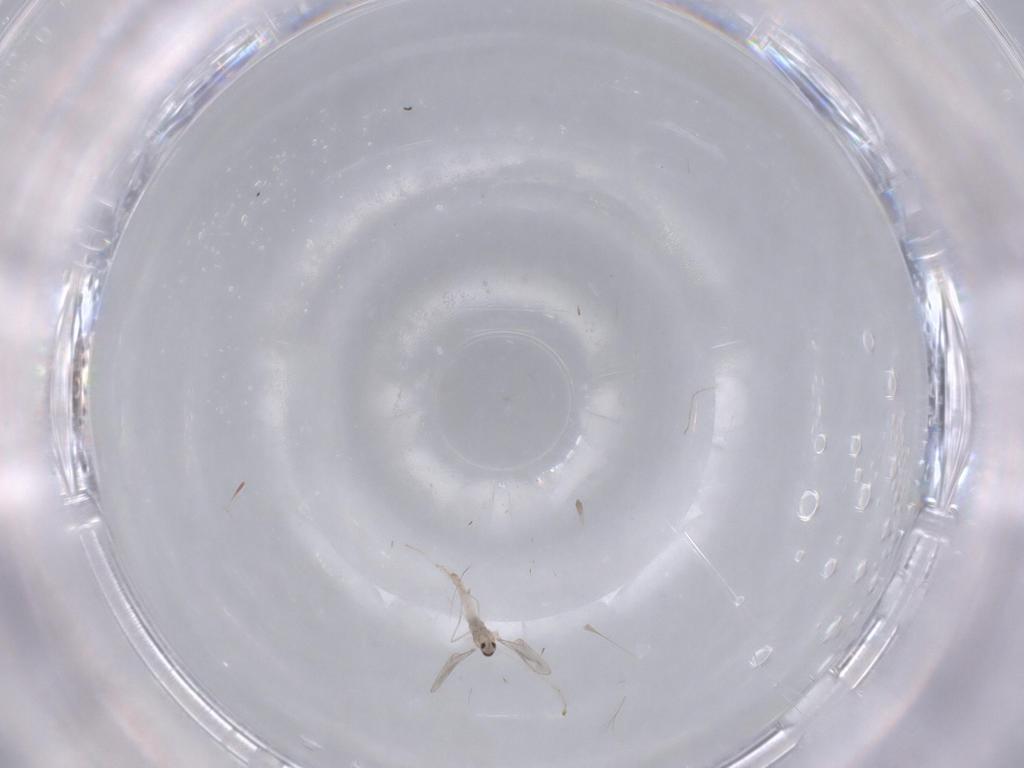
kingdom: Animalia
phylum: Arthropoda
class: Insecta
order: Diptera
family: Cecidomyiidae
